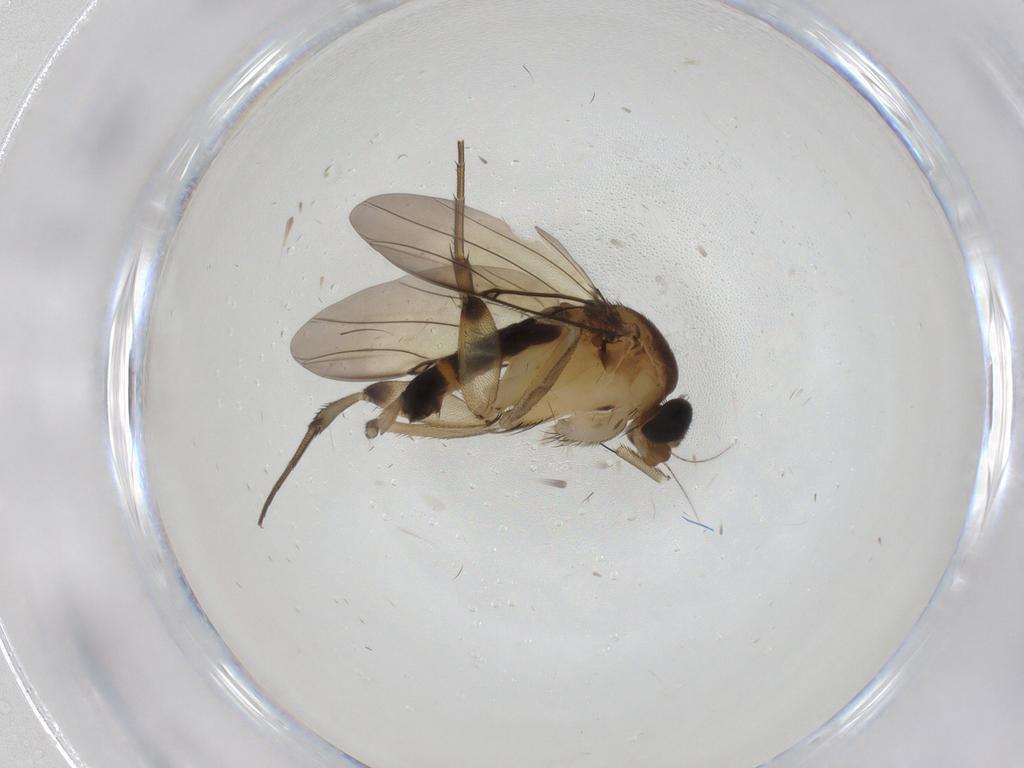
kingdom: Animalia
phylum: Arthropoda
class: Insecta
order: Diptera
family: Phoridae
